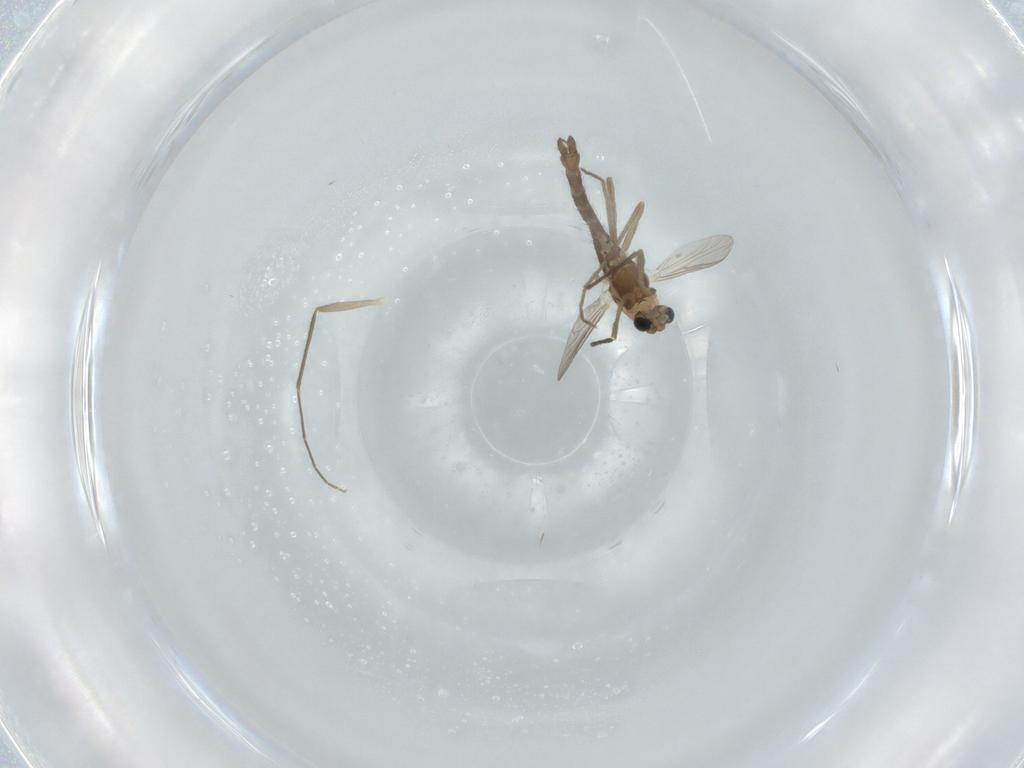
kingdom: Animalia
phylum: Arthropoda
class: Insecta
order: Diptera
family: Chironomidae
